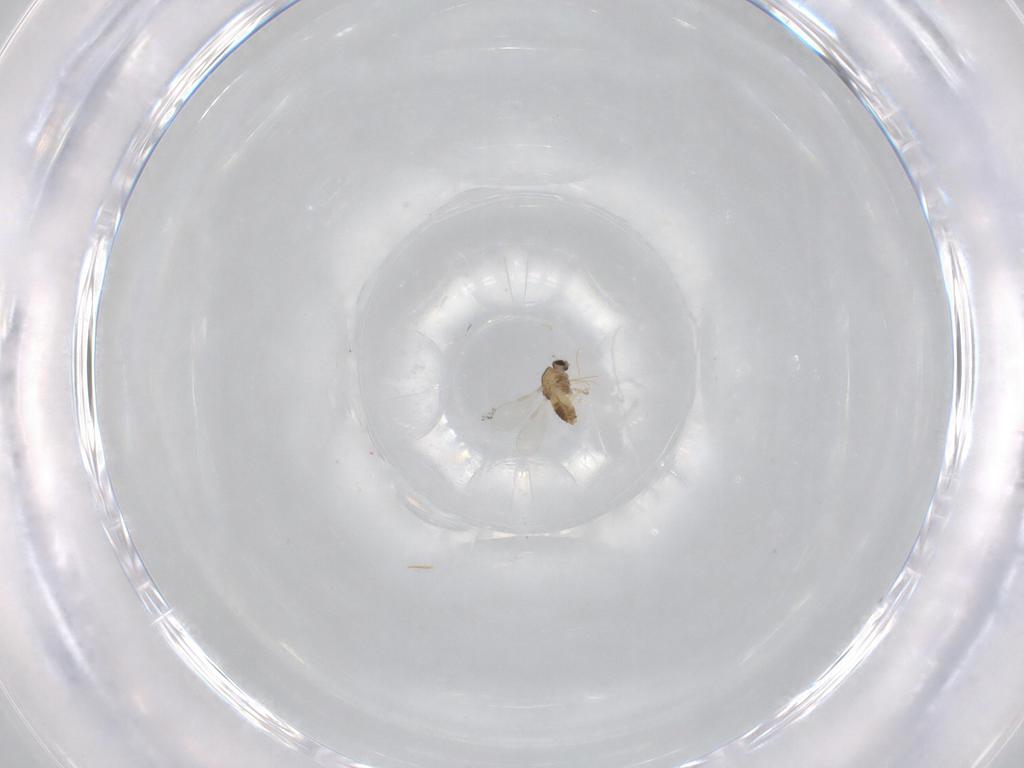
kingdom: Animalia
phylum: Arthropoda
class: Insecta
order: Diptera
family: Chironomidae
